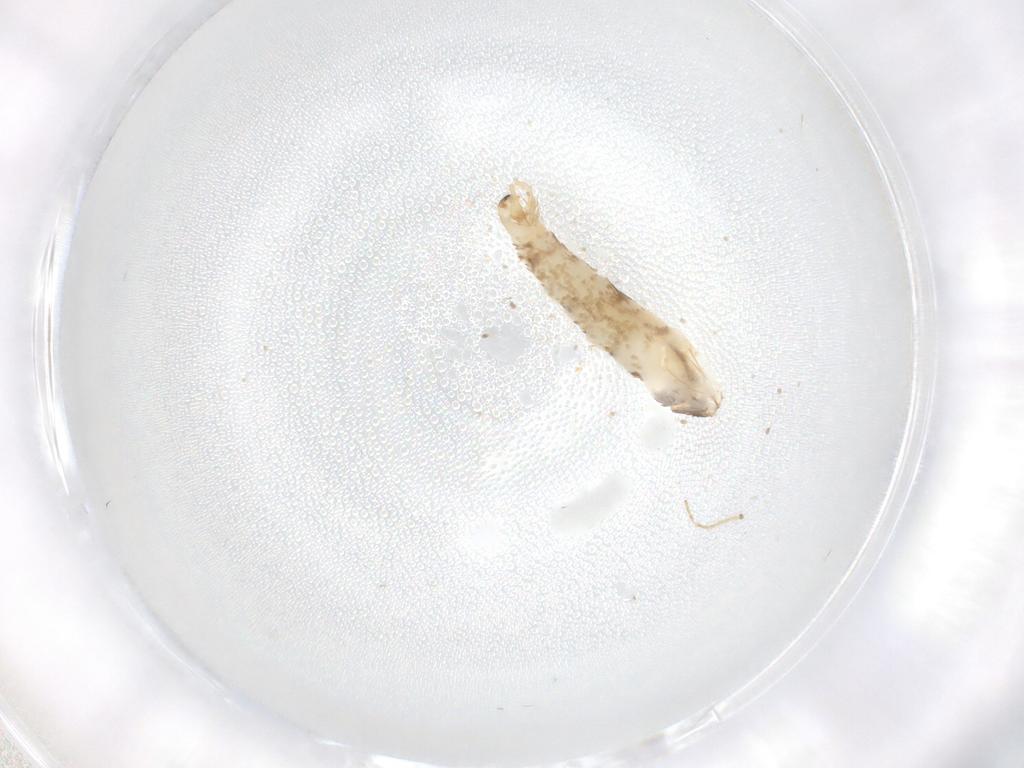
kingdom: Animalia
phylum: Arthropoda
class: Insecta
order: Lepidoptera
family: Tineidae
